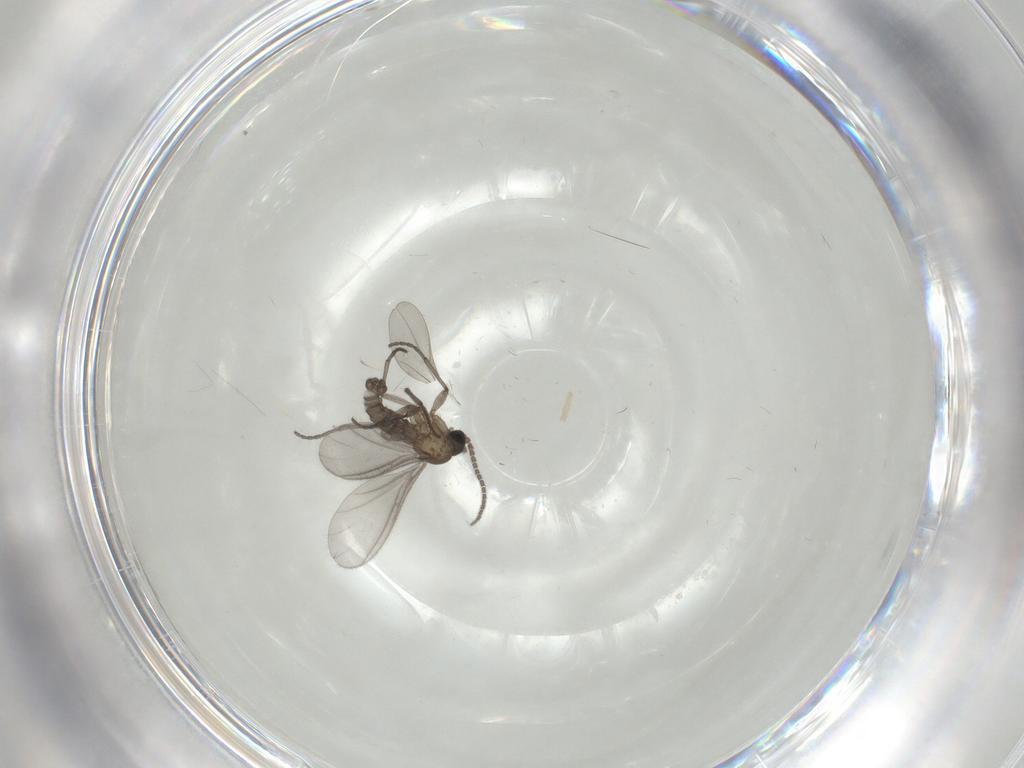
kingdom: Animalia
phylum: Arthropoda
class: Insecta
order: Diptera
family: Sciaridae
